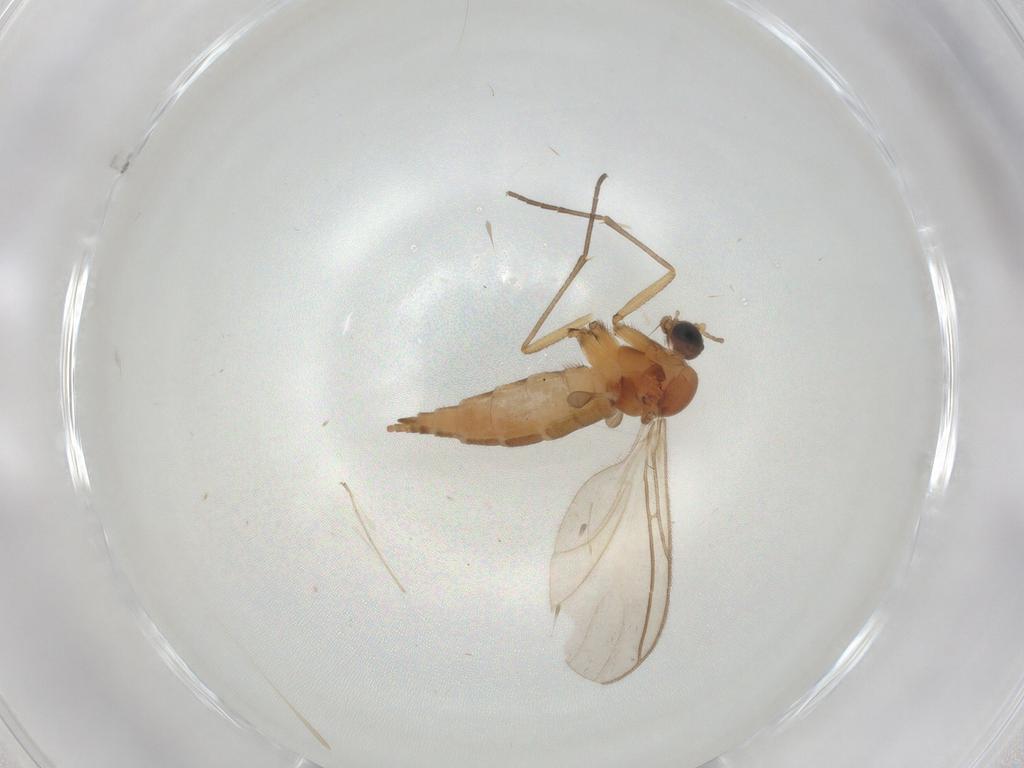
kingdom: Animalia
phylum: Arthropoda
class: Insecta
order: Diptera
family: Sciaridae
